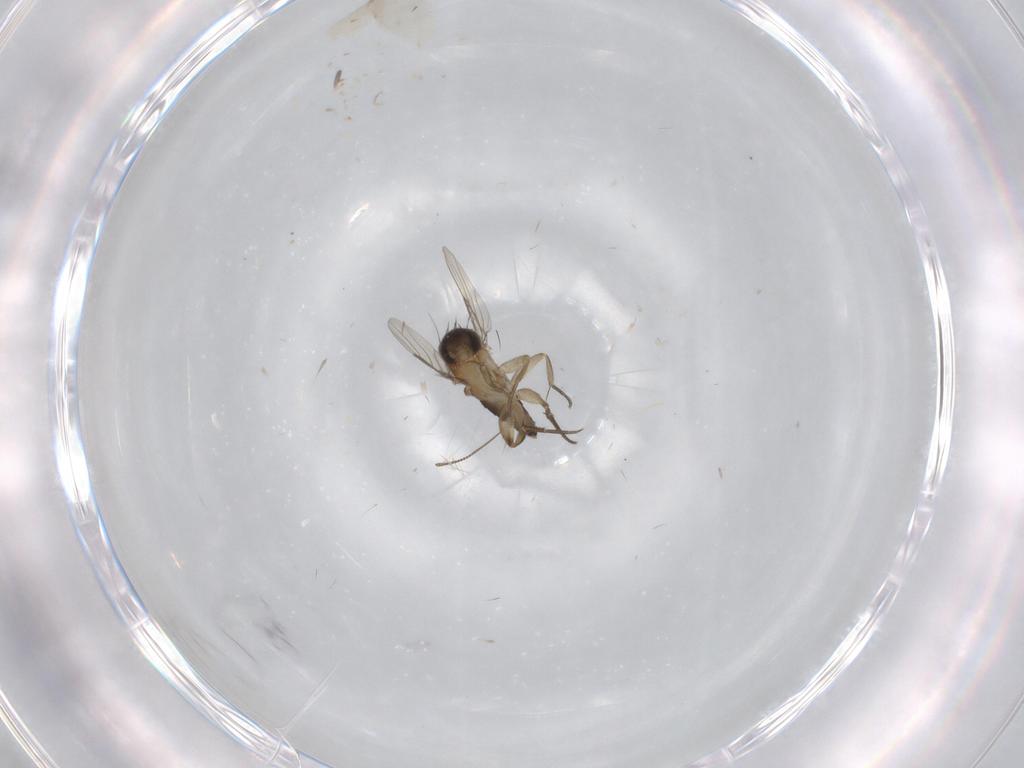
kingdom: Animalia
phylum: Arthropoda
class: Insecta
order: Diptera
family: Phoridae
